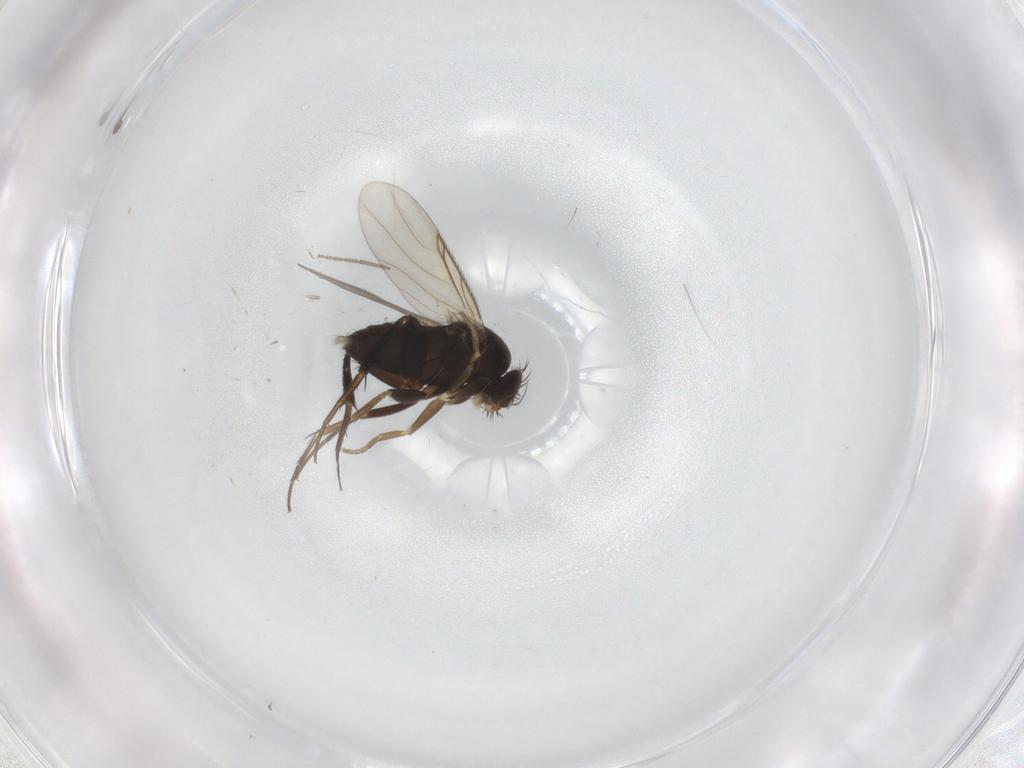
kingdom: Animalia
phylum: Arthropoda
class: Insecta
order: Diptera
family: Phoridae
